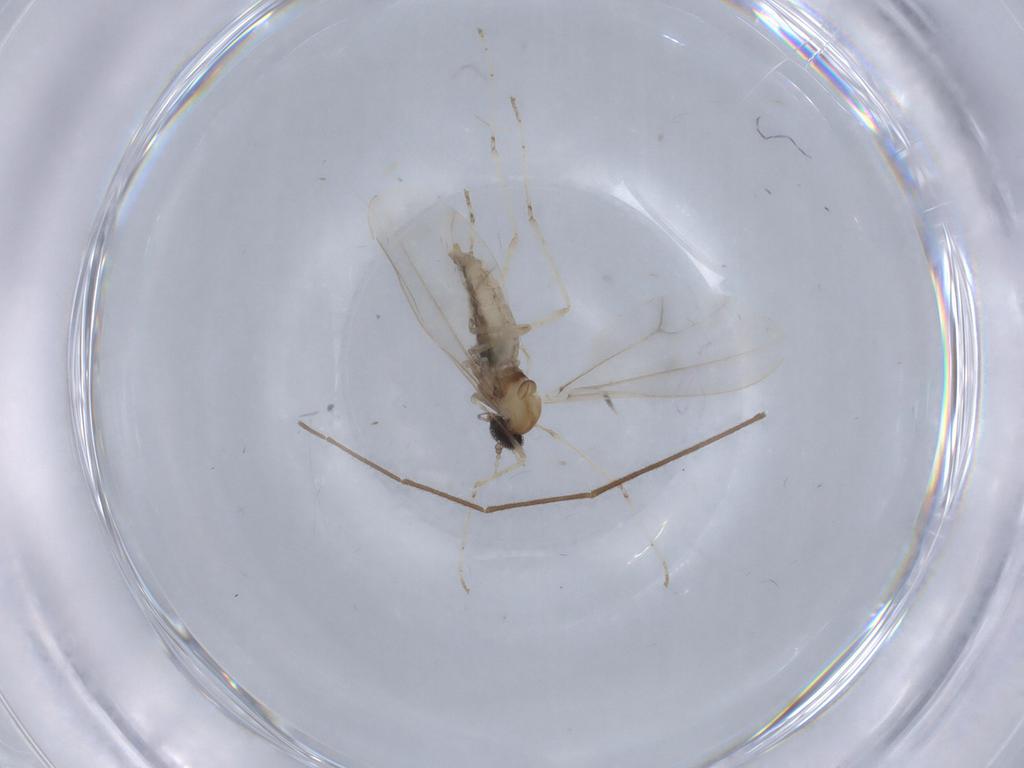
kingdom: Animalia
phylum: Arthropoda
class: Insecta
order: Diptera
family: Cecidomyiidae
